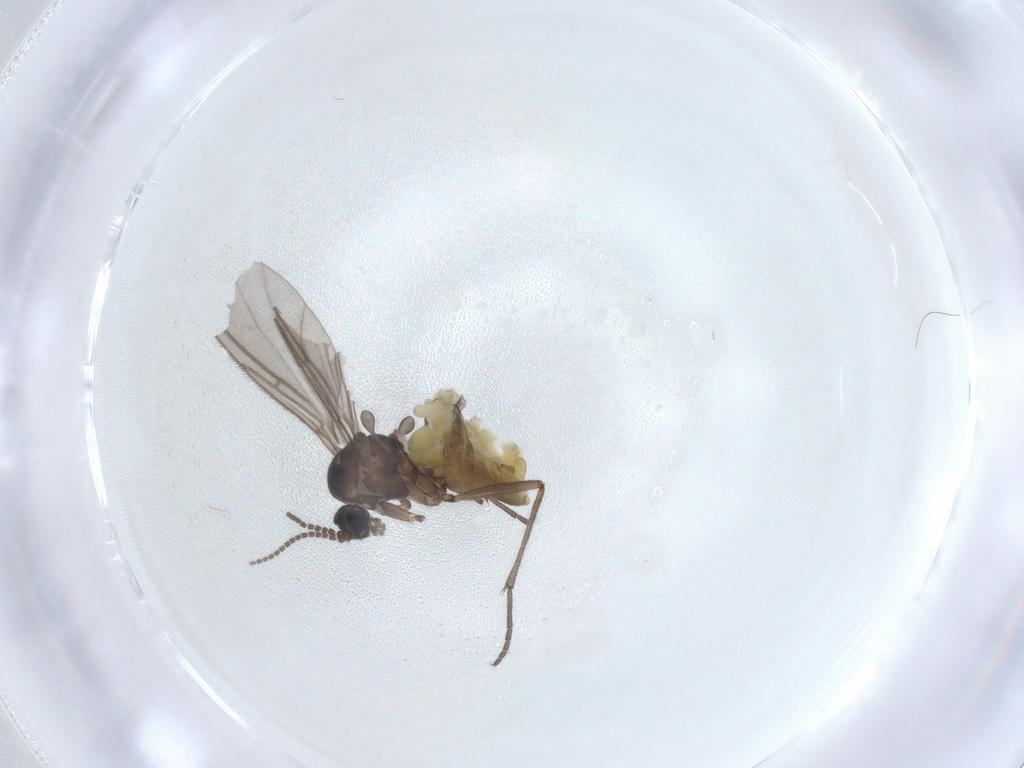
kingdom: Animalia
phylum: Arthropoda
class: Insecta
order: Diptera
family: Sciaridae
